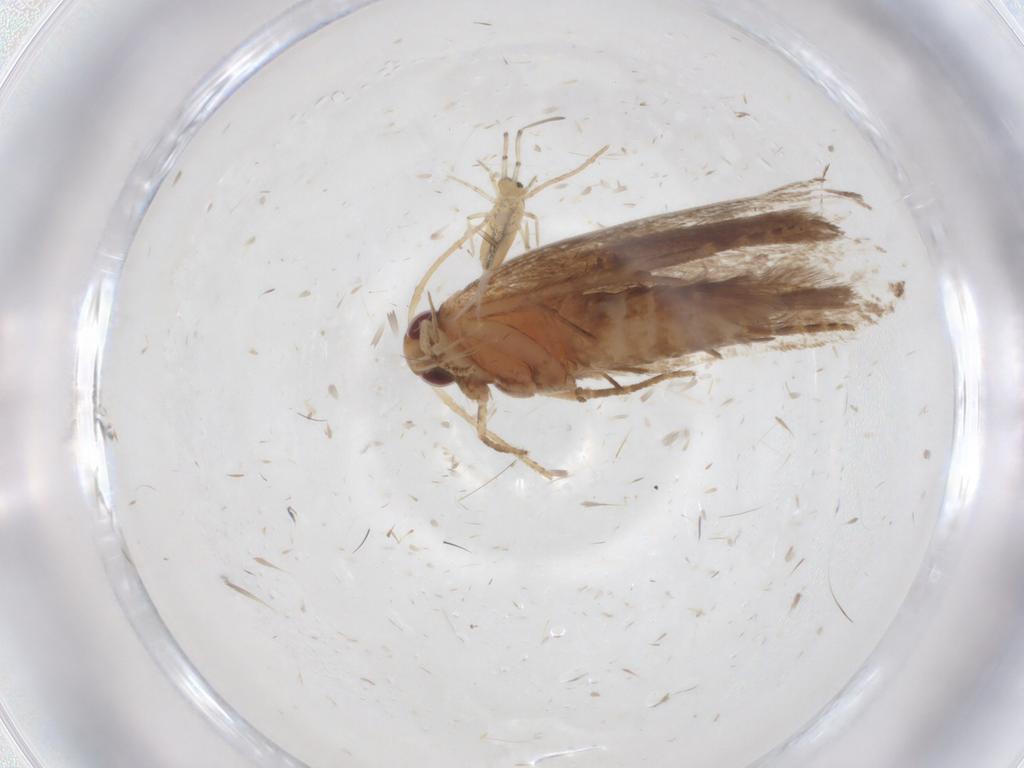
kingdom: Animalia
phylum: Arthropoda
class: Insecta
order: Lepidoptera
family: Gelechiidae
